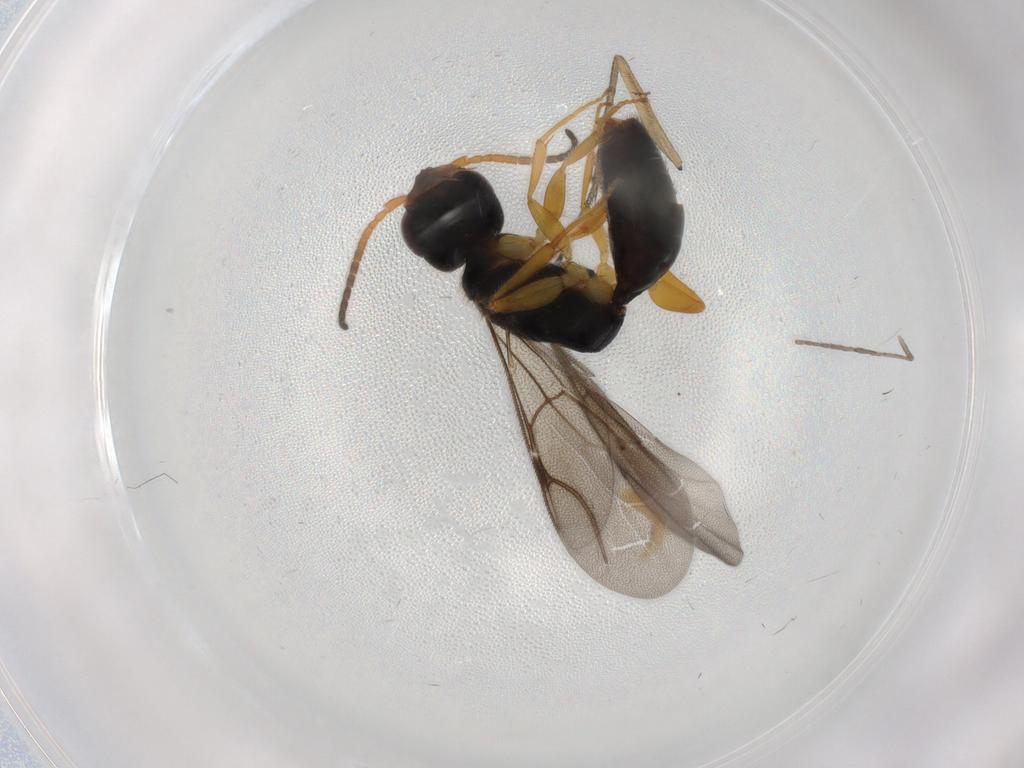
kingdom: Animalia
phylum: Arthropoda
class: Insecta
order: Hymenoptera
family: Bethylidae
